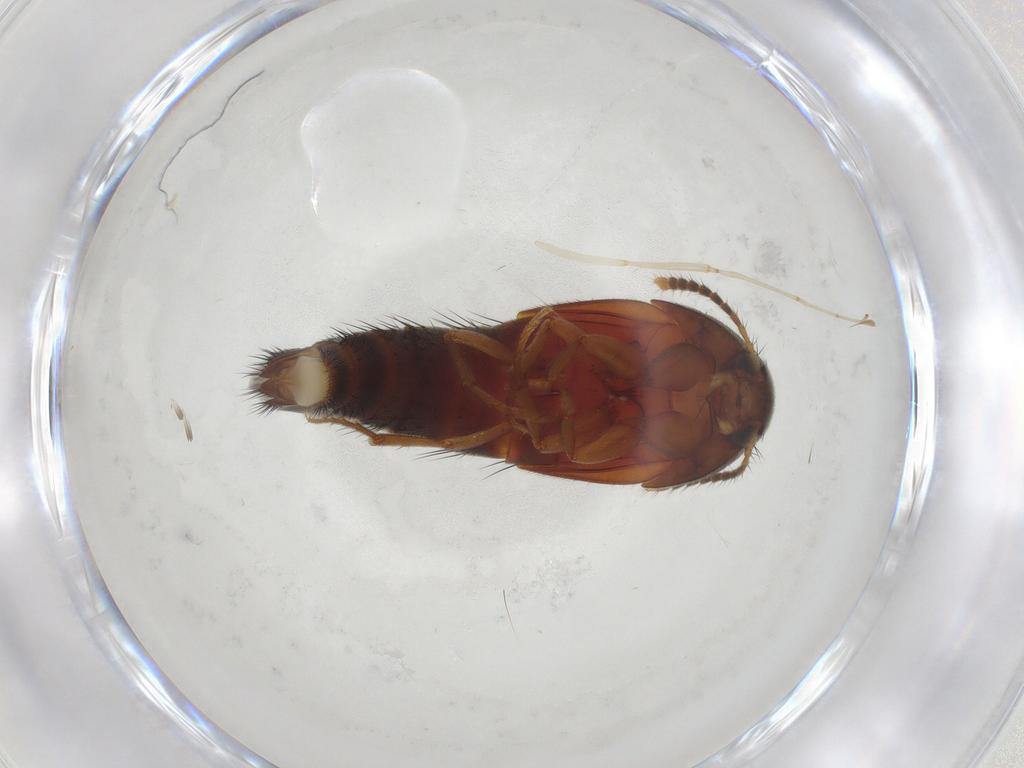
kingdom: Animalia
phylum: Arthropoda
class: Insecta
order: Coleoptera
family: Staphylinidae
